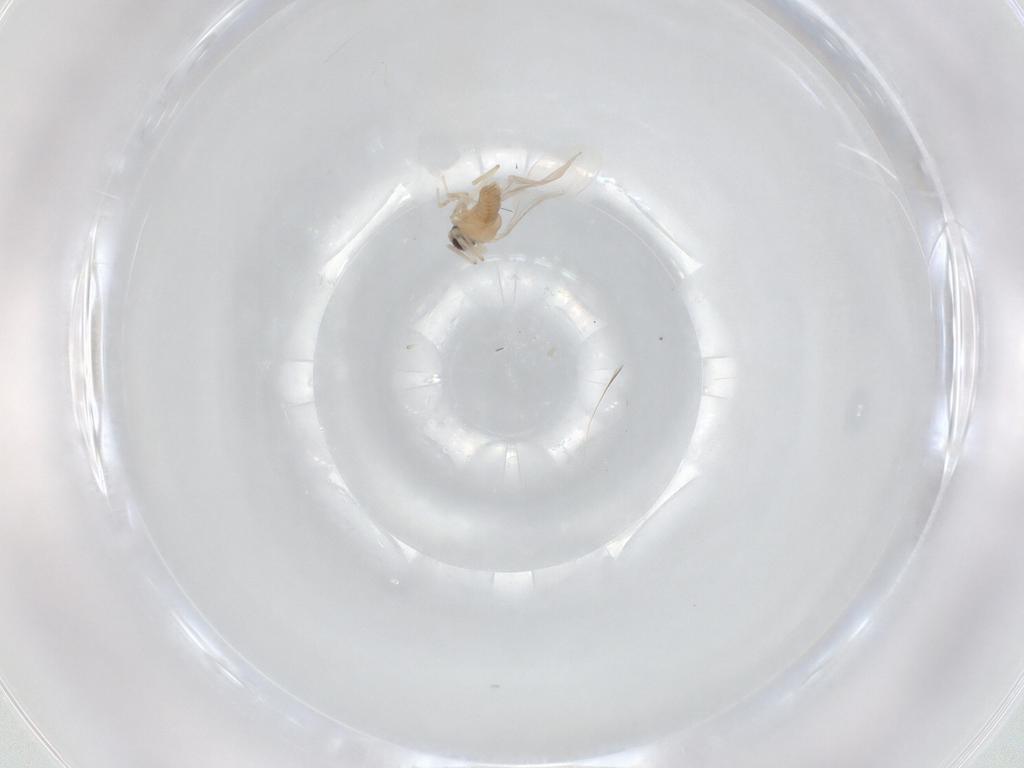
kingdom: Animalia
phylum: Arthropoda
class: Insecta
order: Diptera
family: Cecidomyiidae
